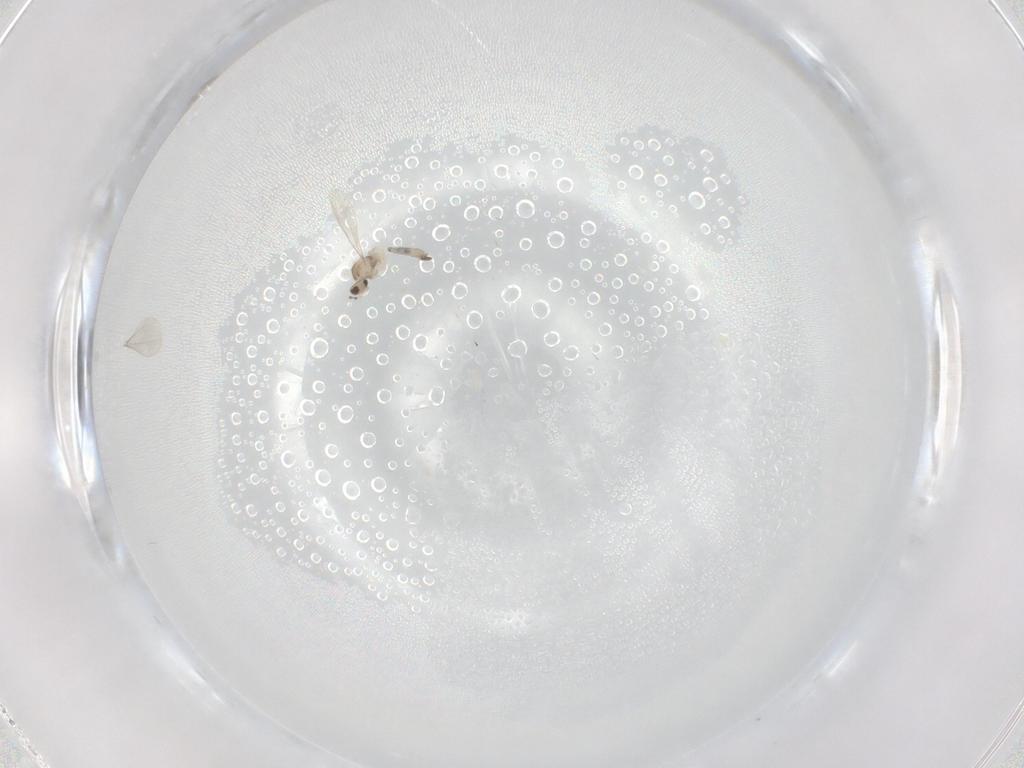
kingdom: Animalia
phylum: Arthropoda
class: Insecta
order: Diptera
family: Cecidomyiidae
